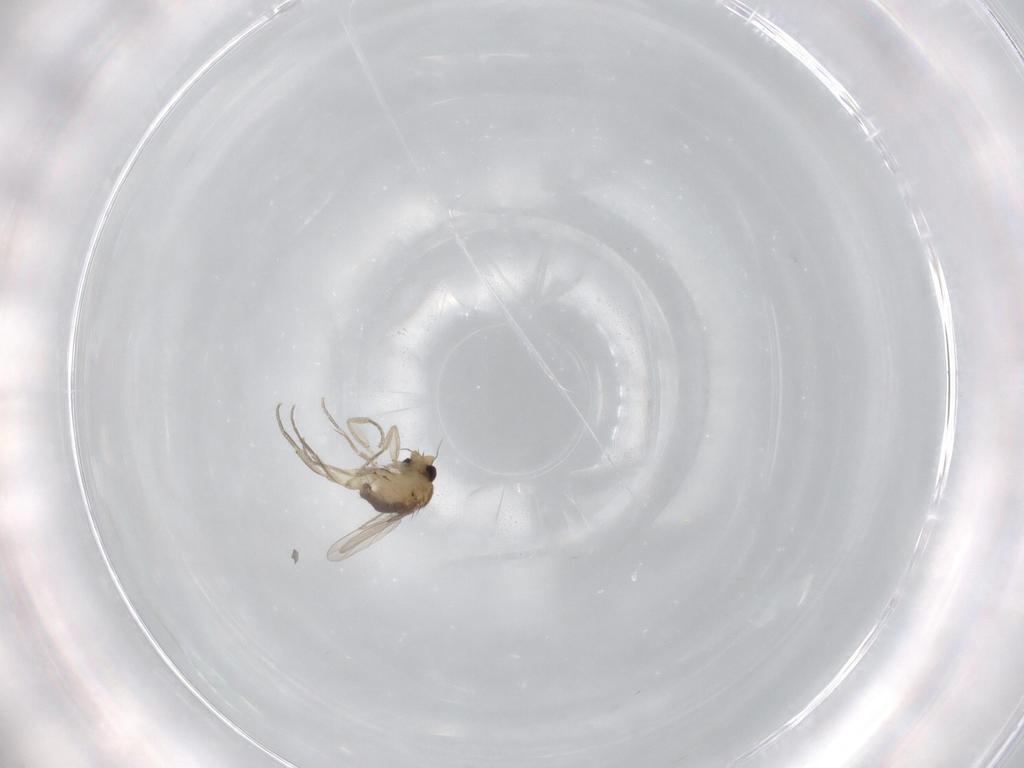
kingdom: Animalia
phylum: Arthropoda
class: Insecta
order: Diptera
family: Phoridae
